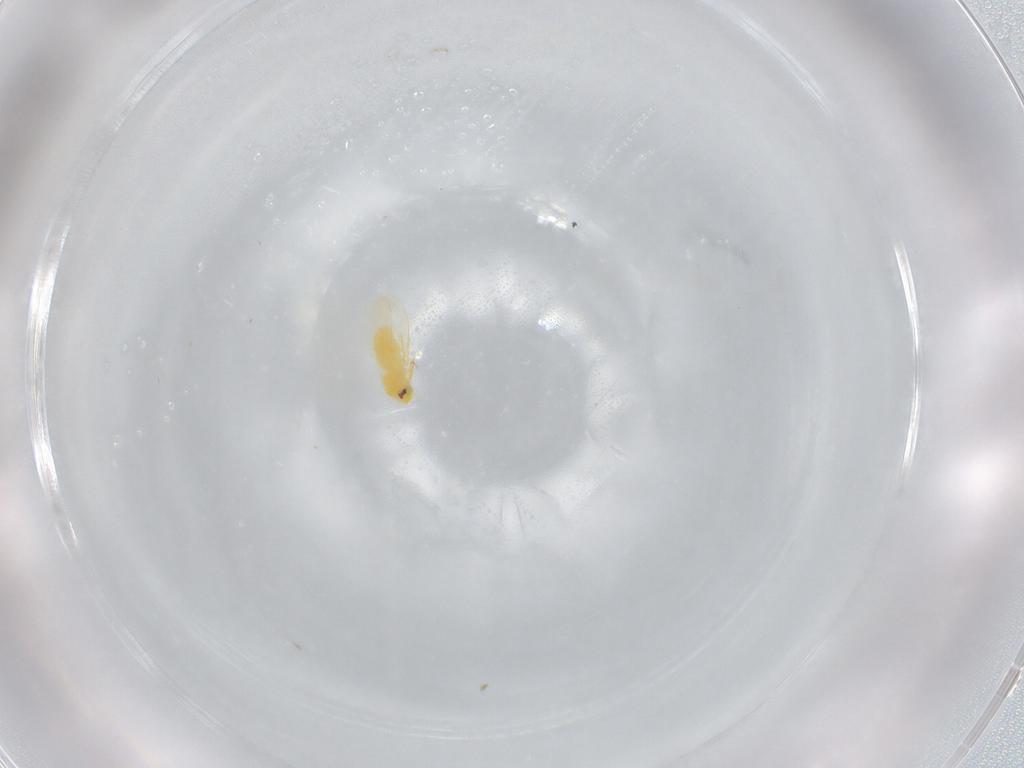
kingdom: Animalia
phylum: Arthropoda
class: Insecta
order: Hemiptera
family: Aleyrodidae
